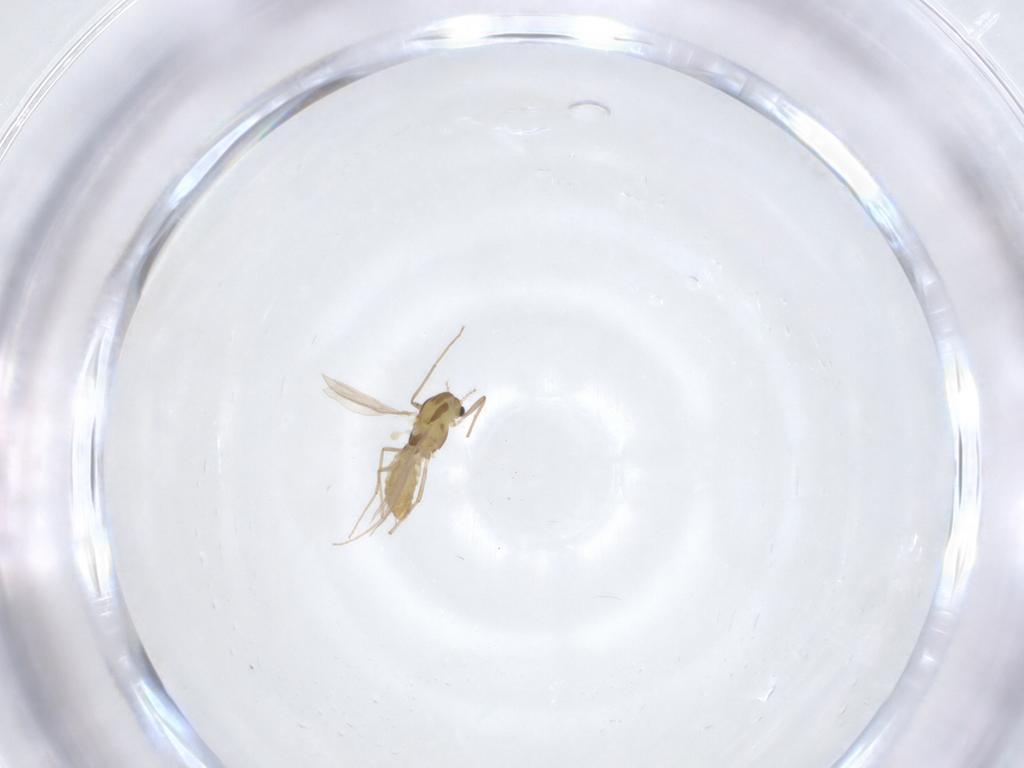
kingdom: Animalia
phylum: Arthropoda
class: Insecta
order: Diptera
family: Chironomidae
